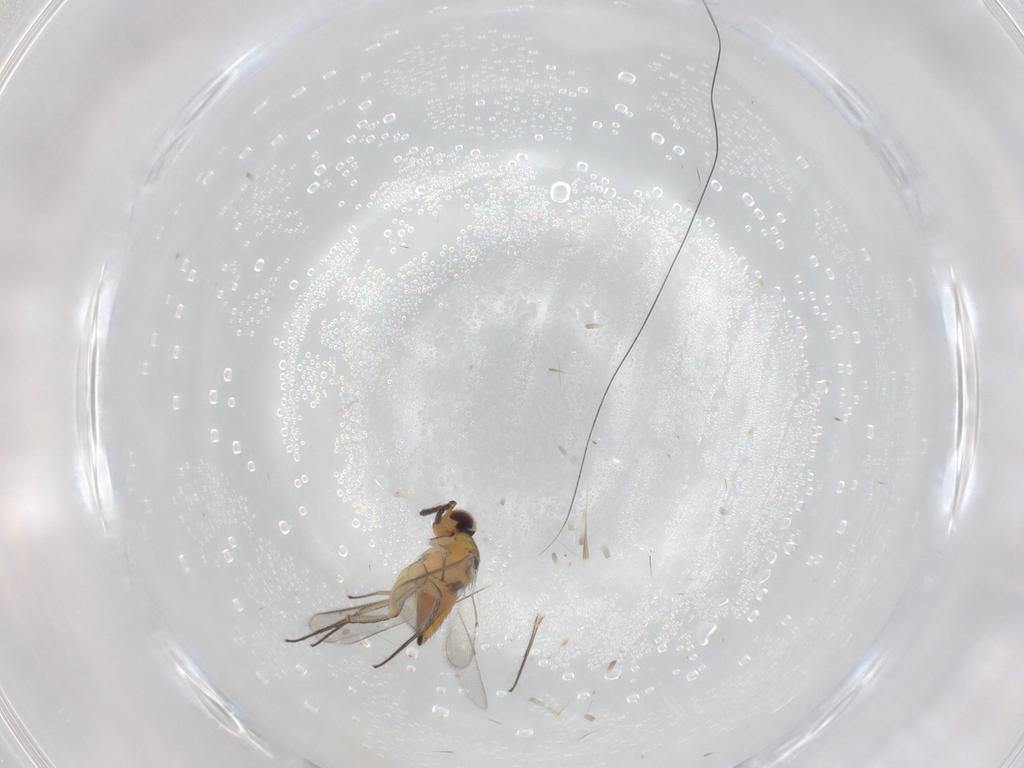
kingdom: Animalia
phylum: Arthropoda
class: Insecta
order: Hymenoptera
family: Eulophidae
